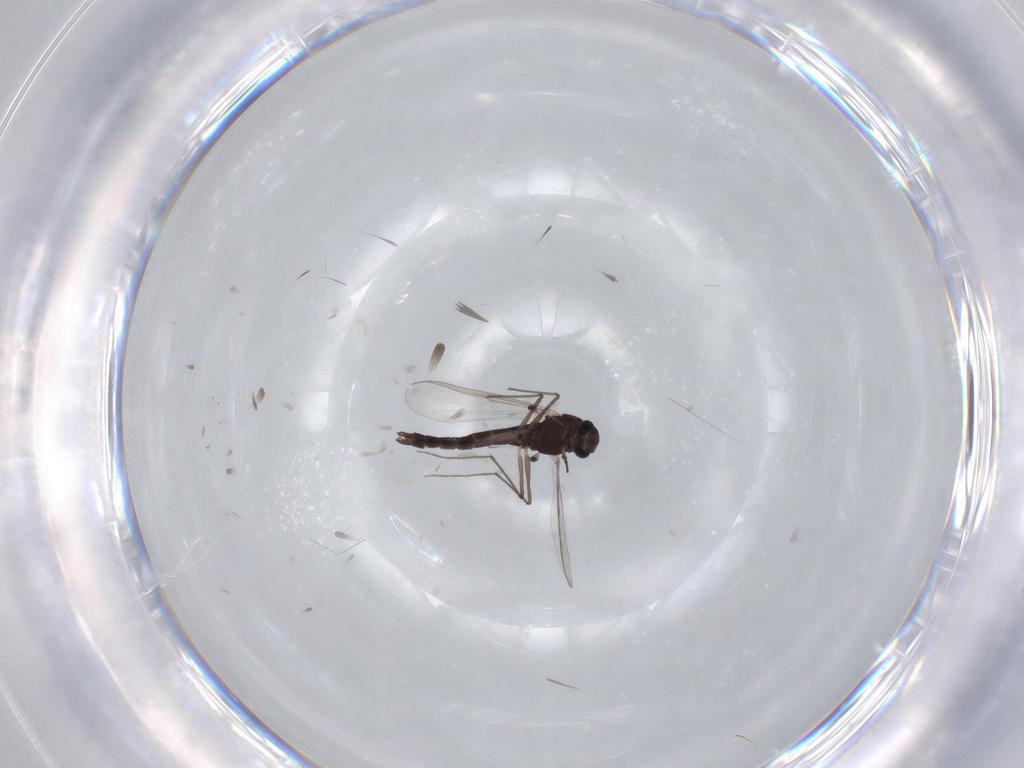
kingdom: Animalia
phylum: Arthropoda
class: Insecta
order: Diptera
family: Chironomidae
